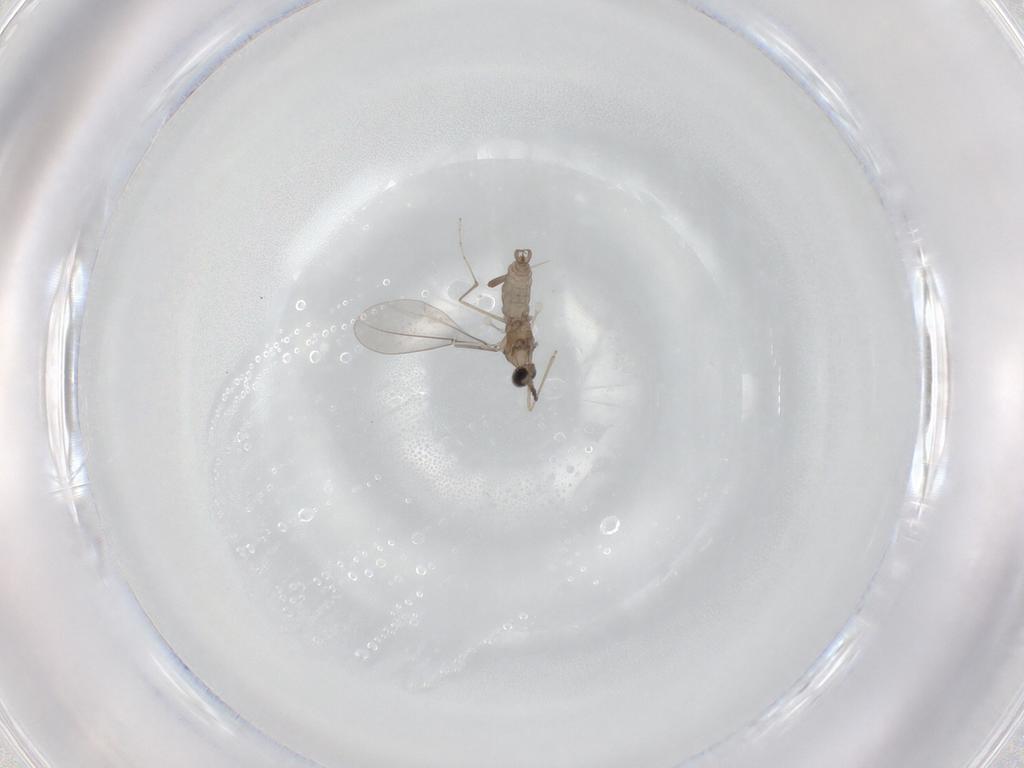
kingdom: Animalia
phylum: Arthropoda
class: Insecta
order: Diptera
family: Cecidomyiidae
